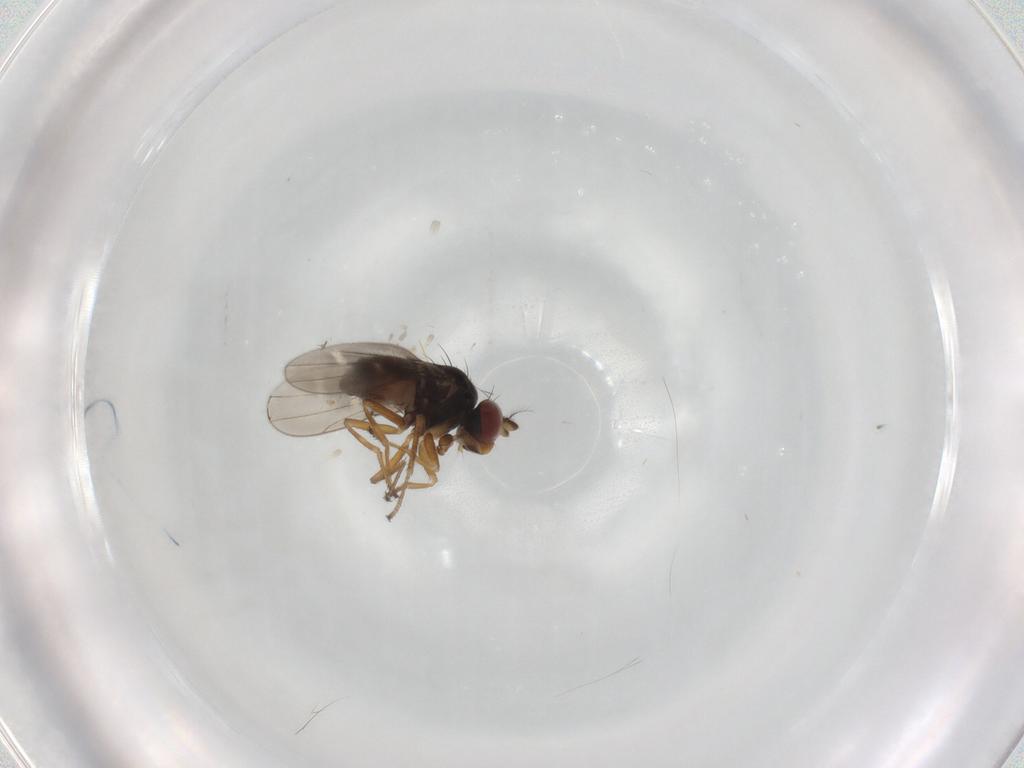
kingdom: Animalia
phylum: Arthropoda
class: Insecta
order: Diptera
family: Ephydridae
